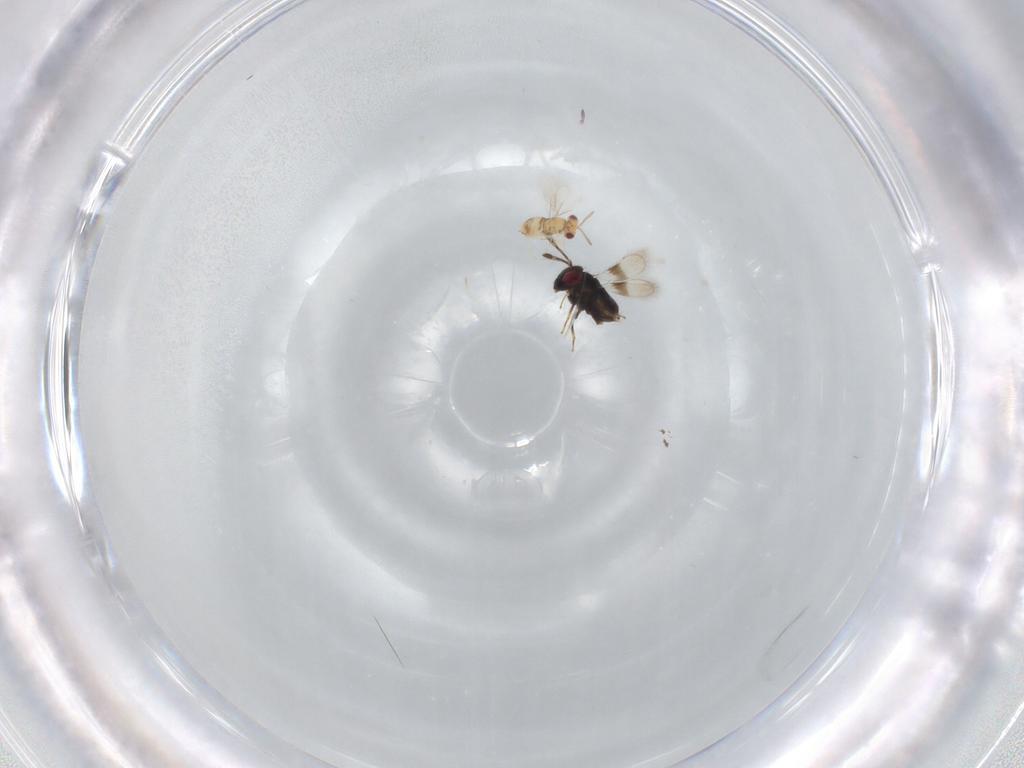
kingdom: Animalia
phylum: Arthropoda
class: Insecta
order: Hymenoptera
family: Aphelinidae
